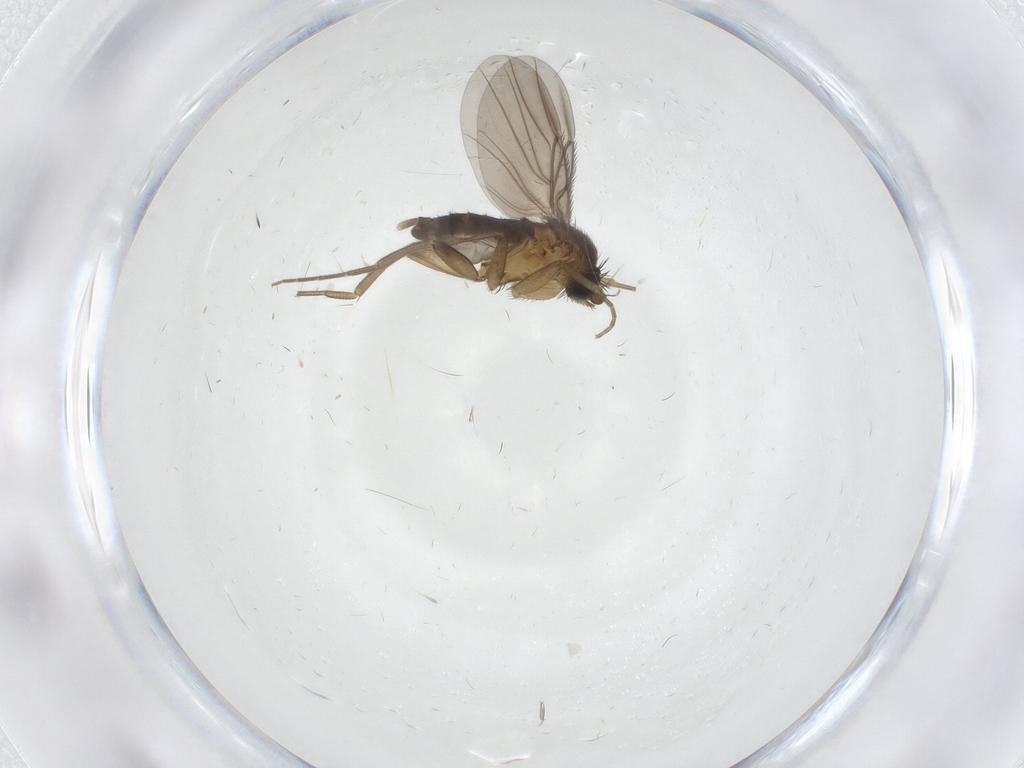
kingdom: Animalia
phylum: Arthropoda
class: Insecta
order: Diptera
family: Phoridae
